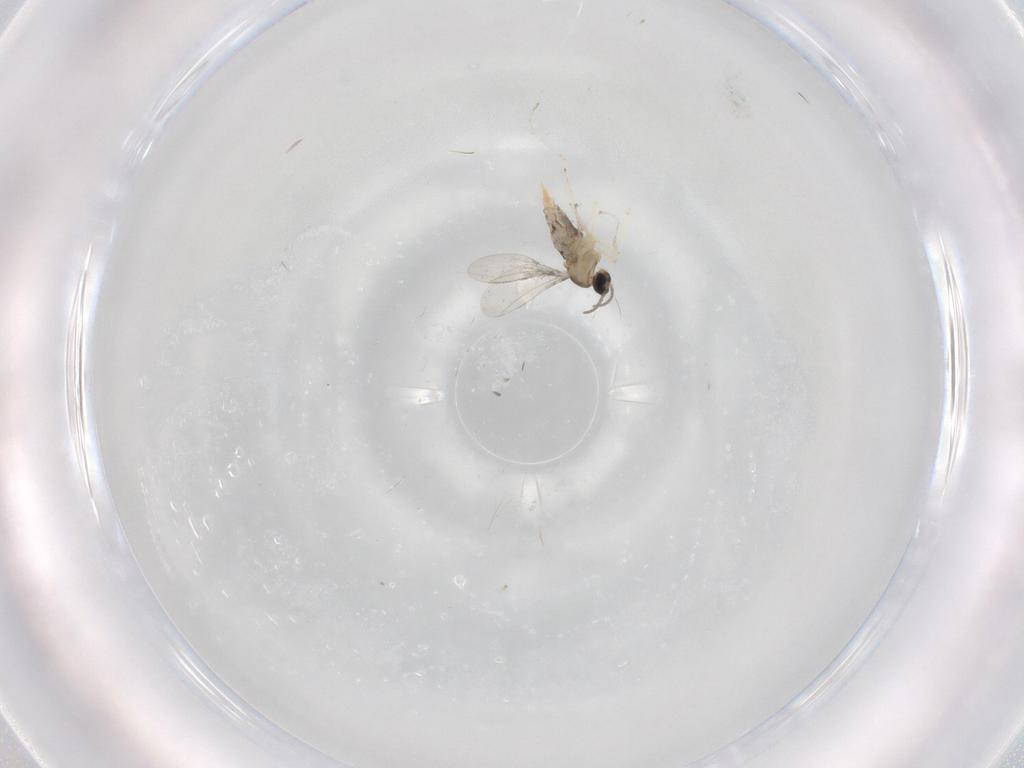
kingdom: Animalia
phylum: Arthropoda
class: Insecta
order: Diptera
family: Cecidomyiidae
